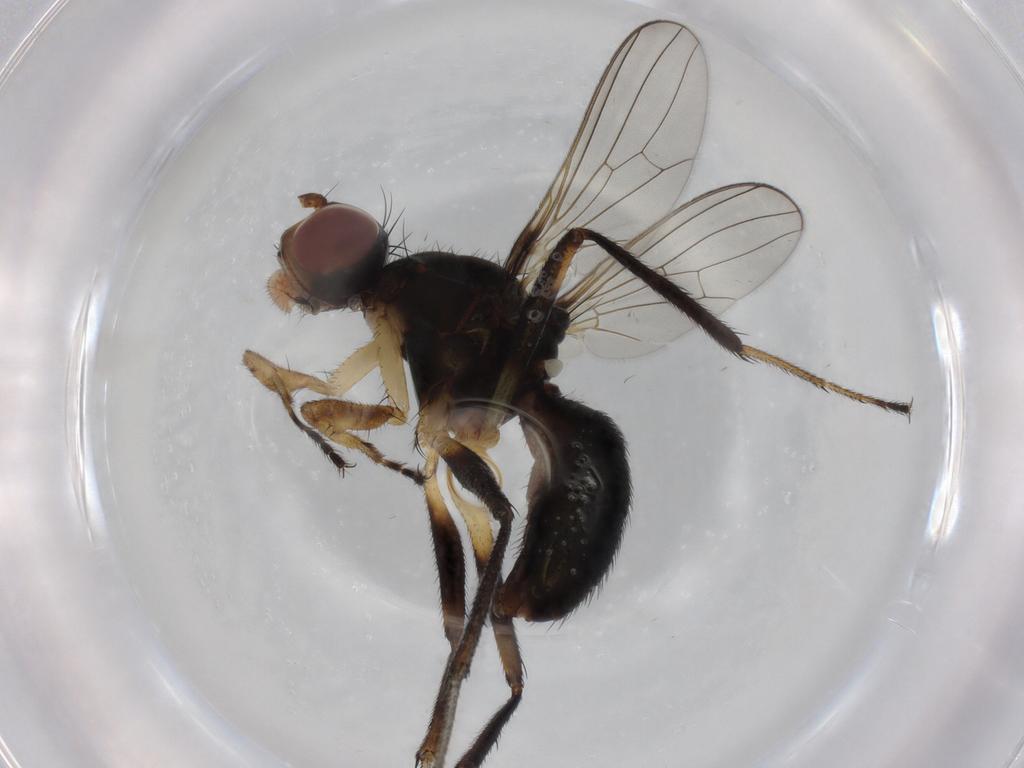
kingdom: Animalia
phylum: Arthropoda
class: Insecta
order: Diptera
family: Sepsidae
